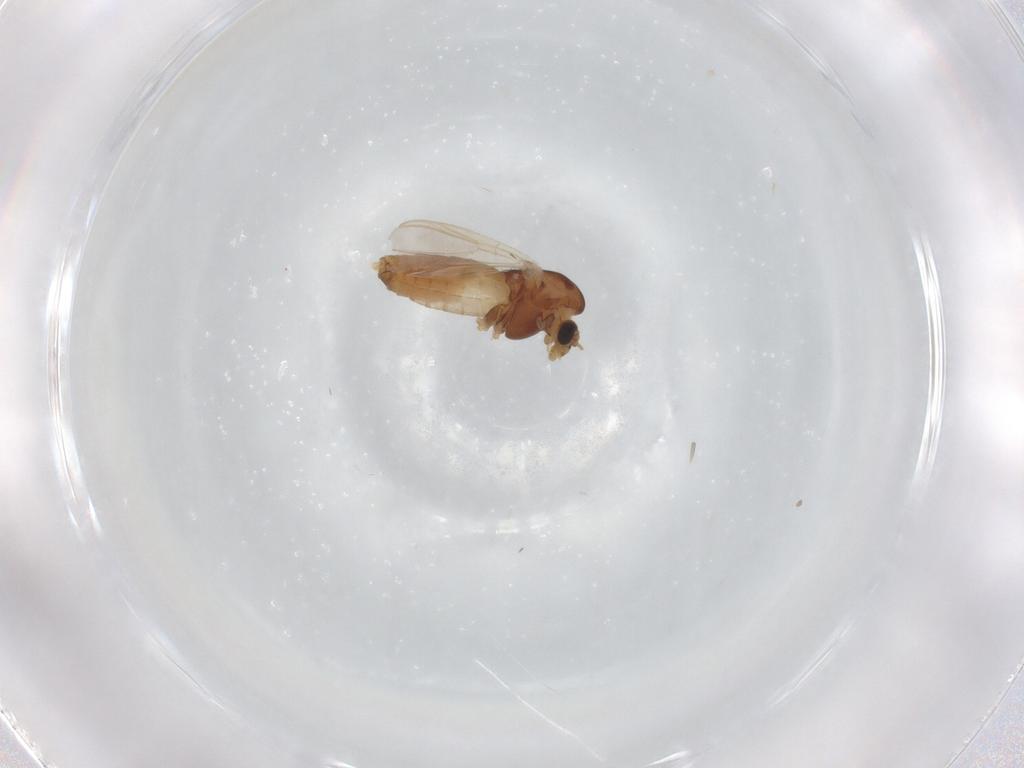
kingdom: Animalia
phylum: Arthropoda
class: Insecta
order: Diptera
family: Chironomidae
